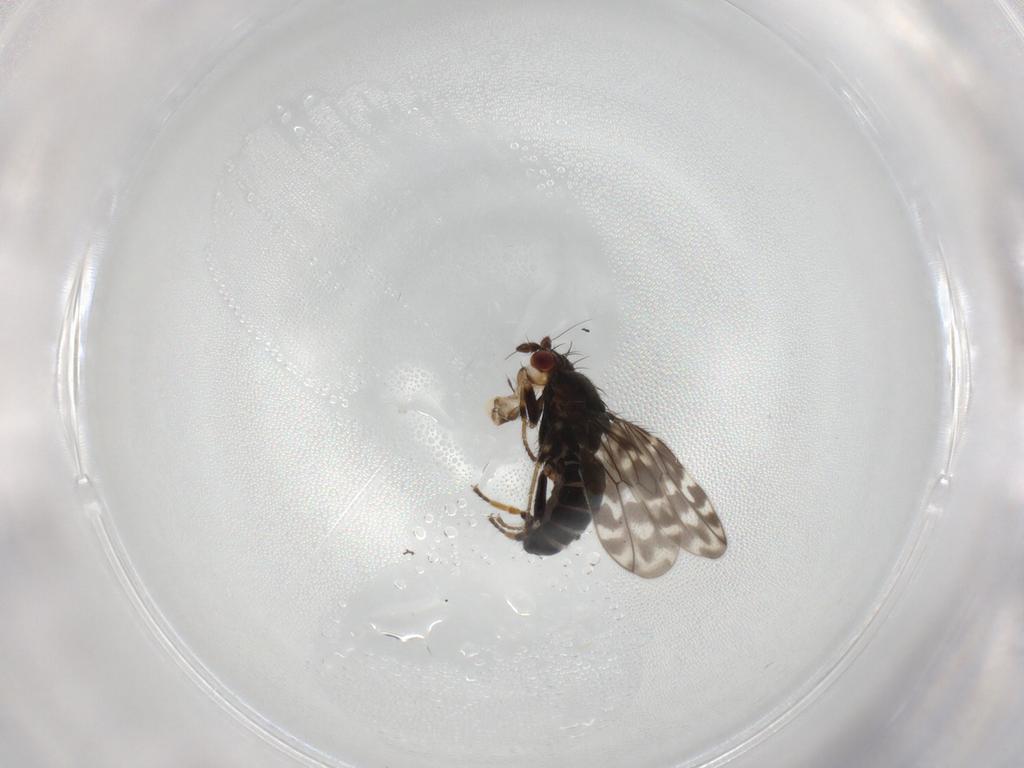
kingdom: Animalia
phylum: Arthropoda
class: Insecta
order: Diptera
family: Sphaeroceridae
